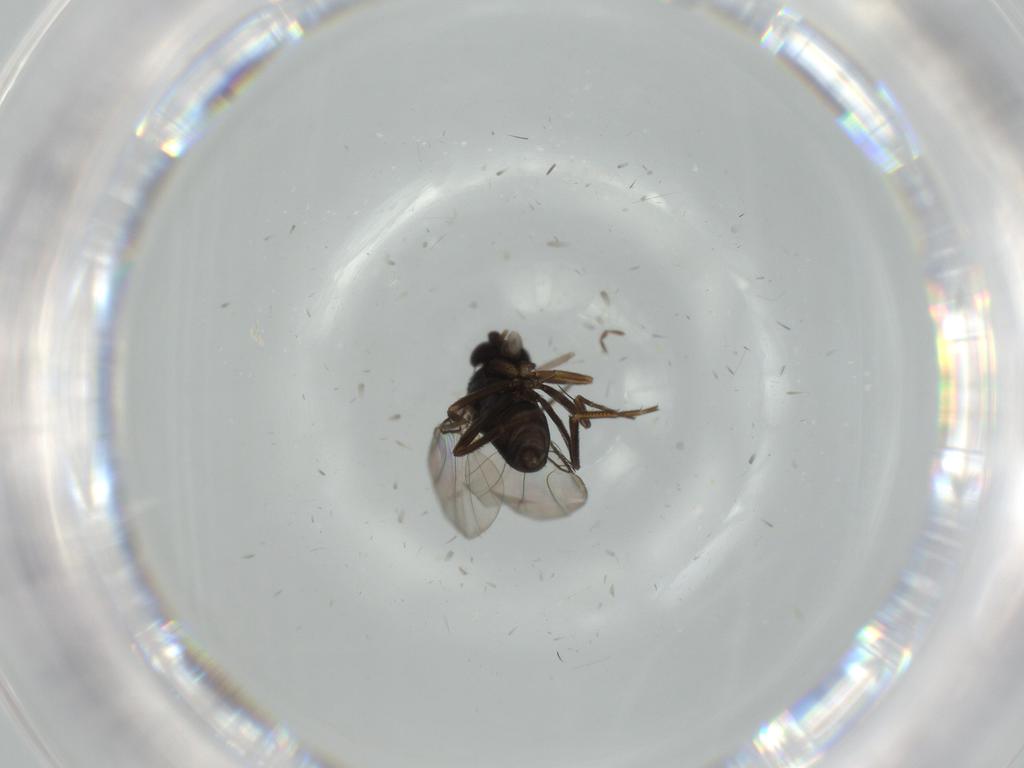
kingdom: Animalia
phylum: Arthropoda
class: Insecta
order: Diptera
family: Phoridae
